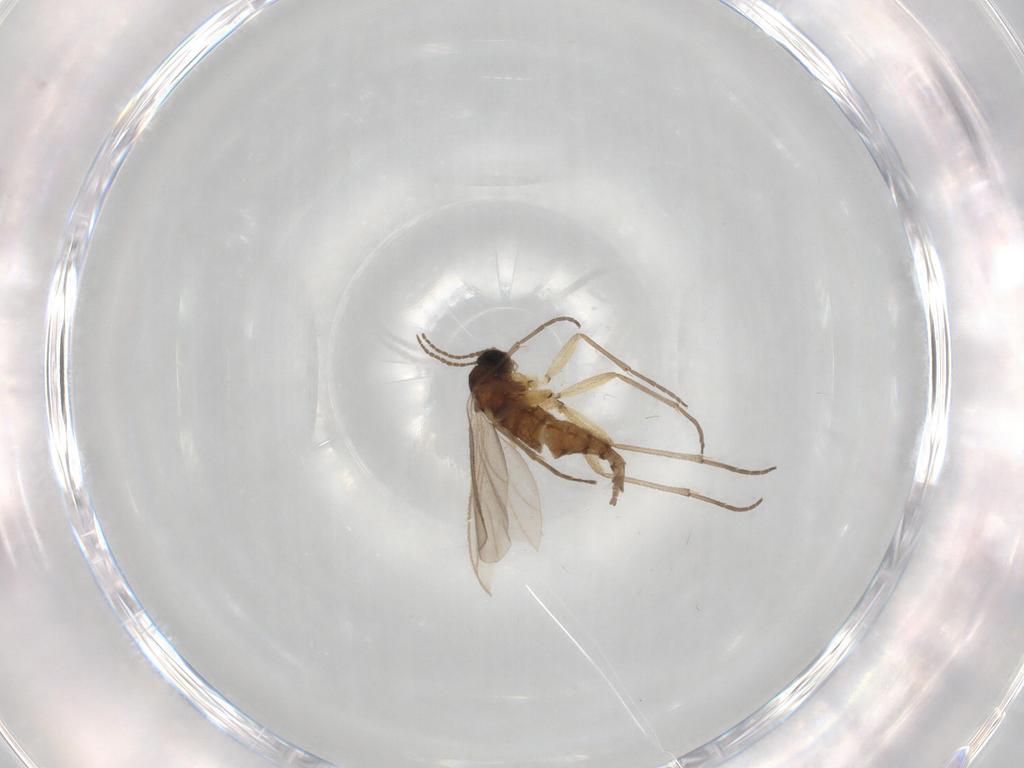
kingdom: Animalia
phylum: Arthropoda
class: Insecta
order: Diptera
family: Sciaridae
